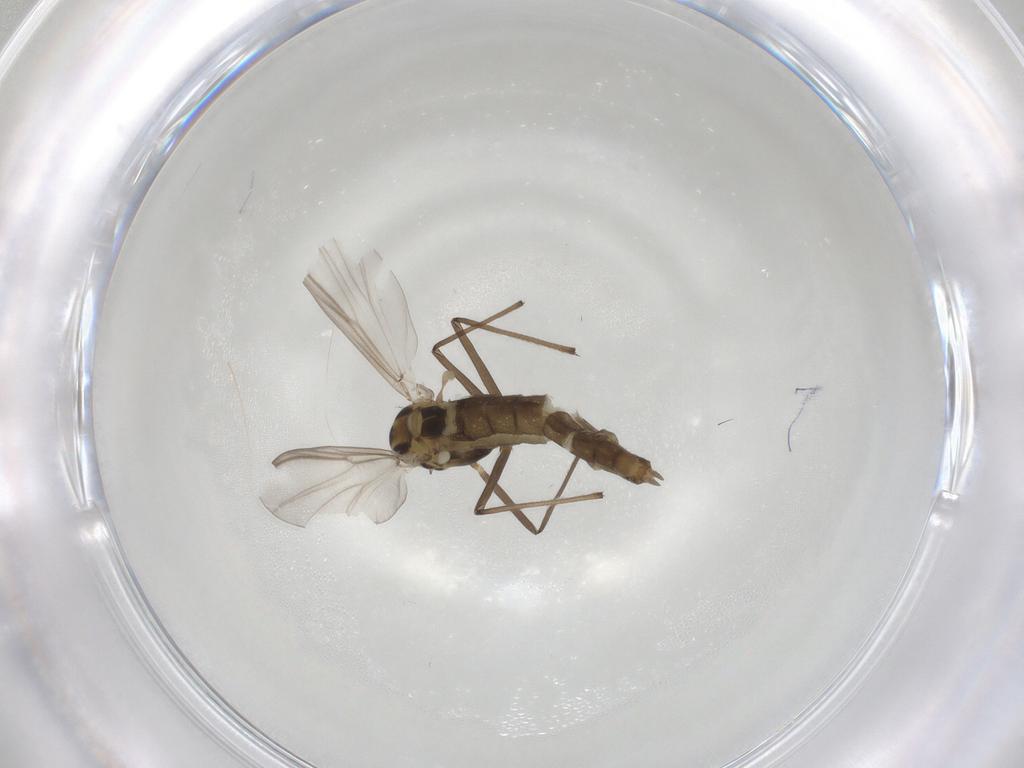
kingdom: Animalia
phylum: Arthropoda
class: Insecta
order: Diptera
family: Chironomidae
